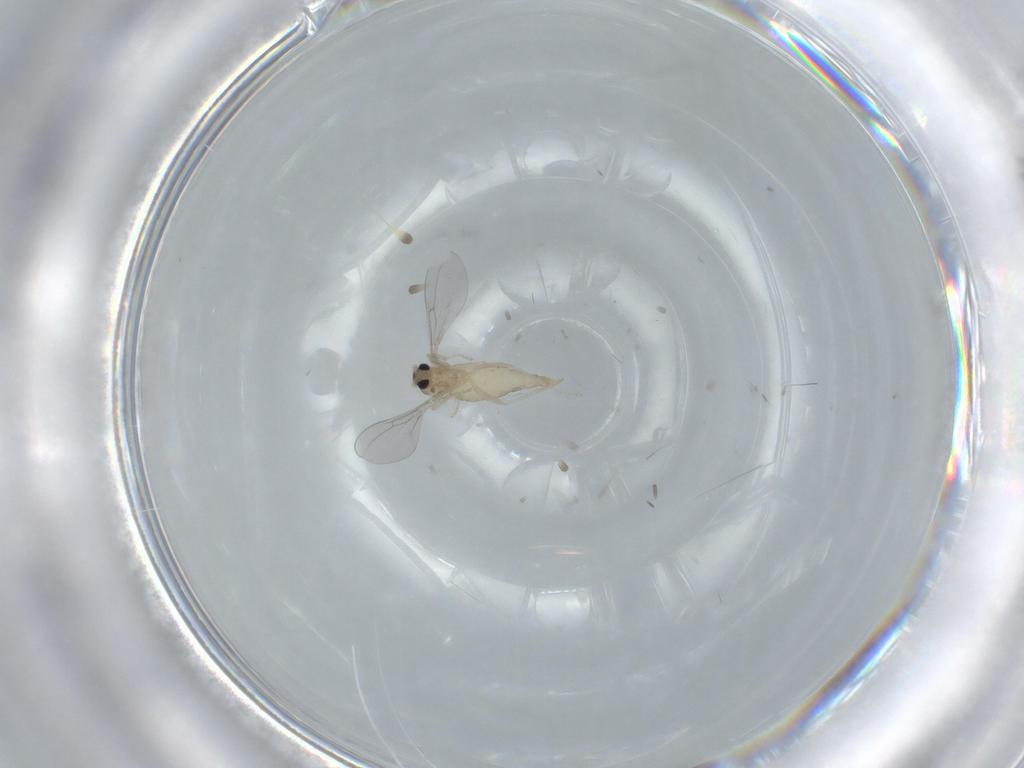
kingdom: Animalia
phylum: Arthropoda
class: Insecta
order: Diptera
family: Cecidomyiidae
